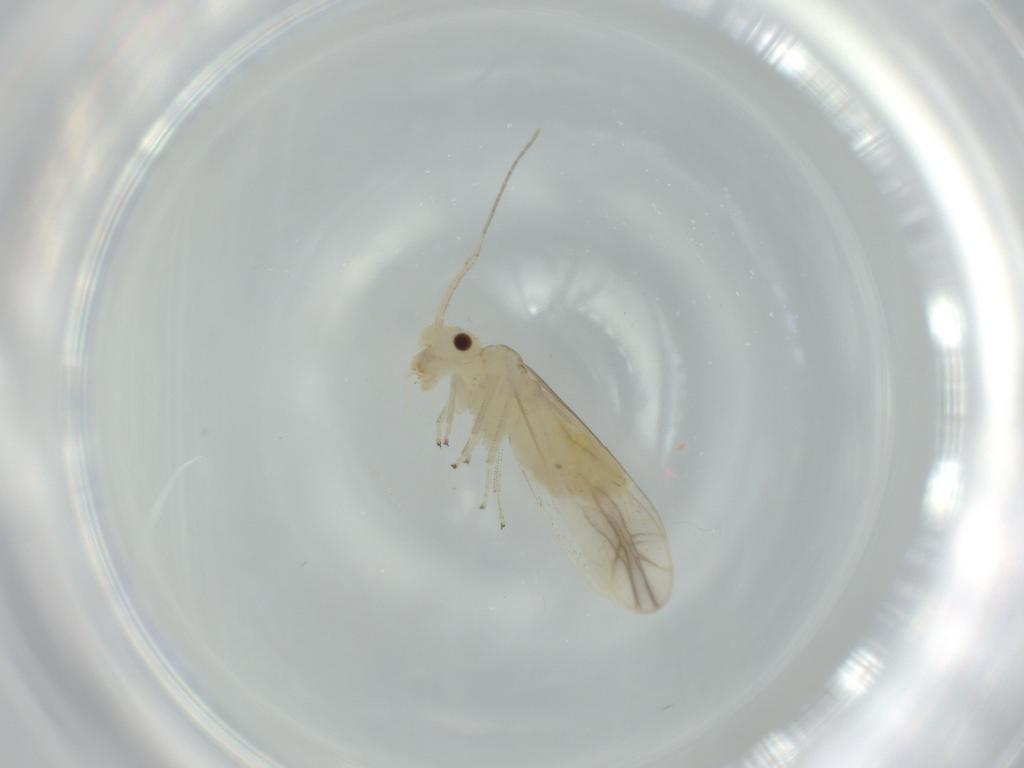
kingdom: Animalia
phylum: Arthropoda
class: Insecta
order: Psocodea
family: Caeciliusidae
